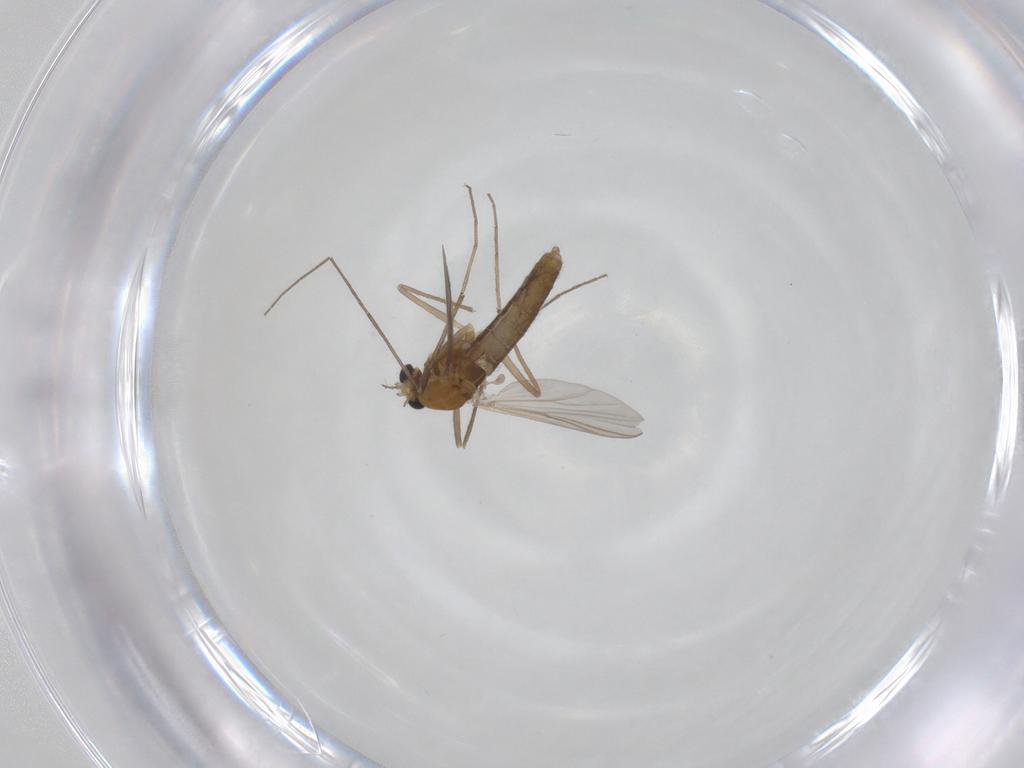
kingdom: Animalia
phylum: Arthropoda
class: Insecta
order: Diptera
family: Chironomidae
